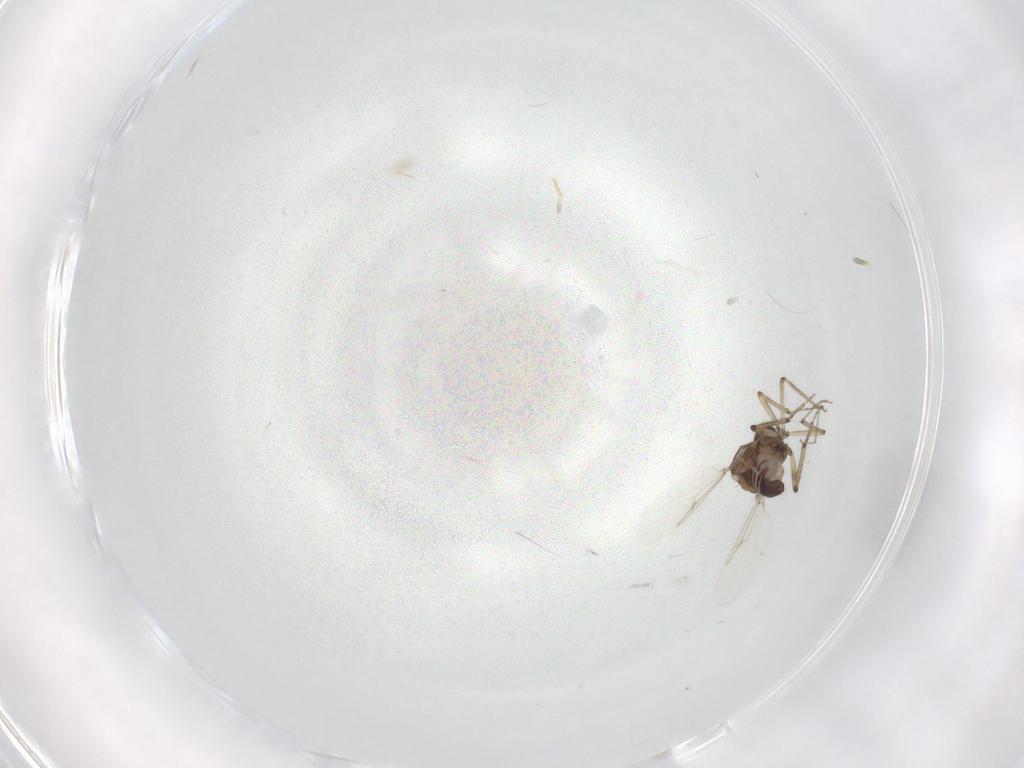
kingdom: Animalia
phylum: Arthropoda
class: Insecta
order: Diptera
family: Ceratopogonidae
